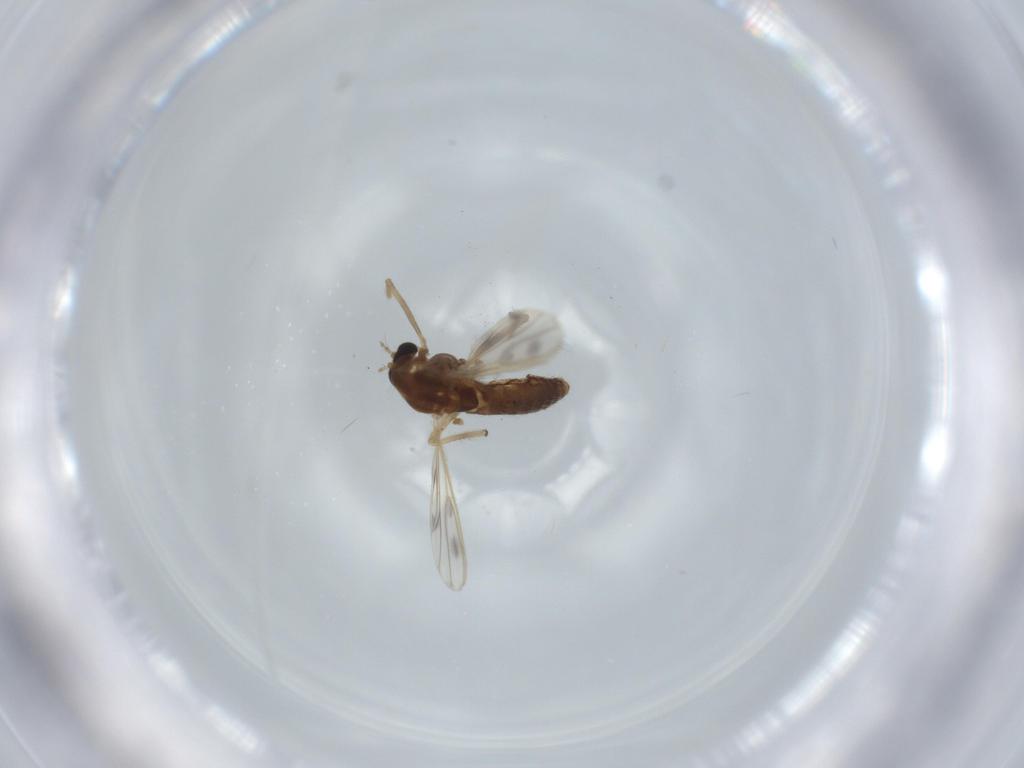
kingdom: Animalia
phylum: Arthropoda
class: Insecta
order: Diptera
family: Chironomidae
